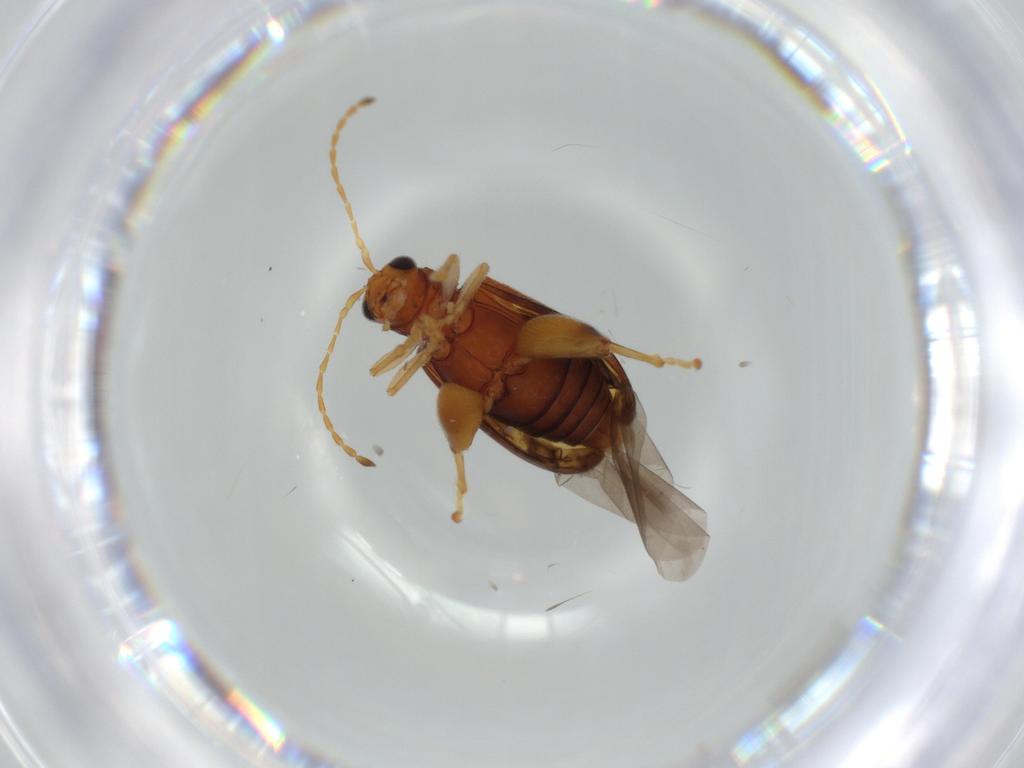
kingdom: Animalia
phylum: Arthropoda
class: Insecta
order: Coleoptera
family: Chrysomelidae
